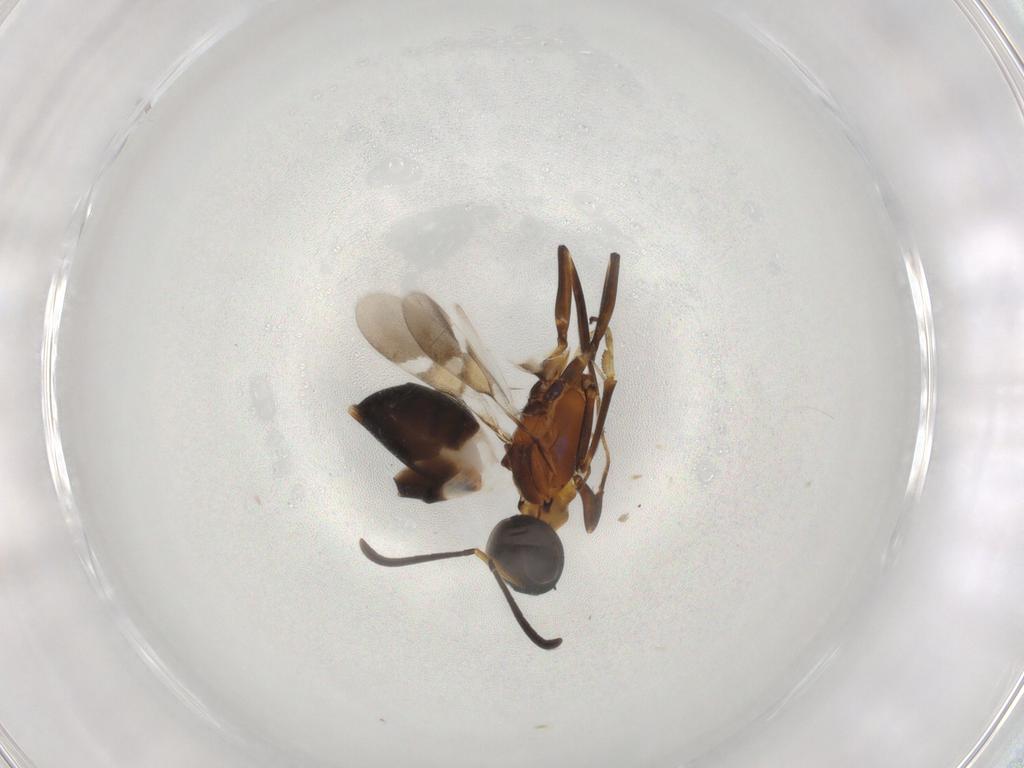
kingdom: Animalia
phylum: Arthropoda
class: Insecta
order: Hymenoptera
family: Eupelmidae
